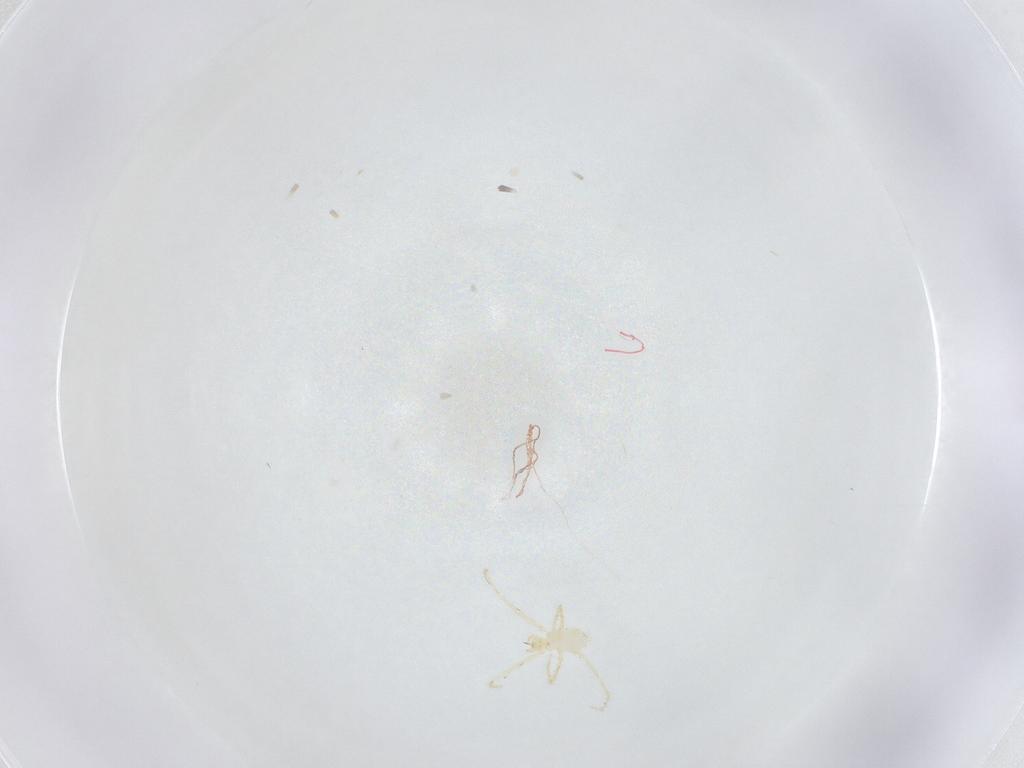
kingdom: Animalia
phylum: Arthropoda
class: Arachnida
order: Trombidiformes
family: Erythraeidae
